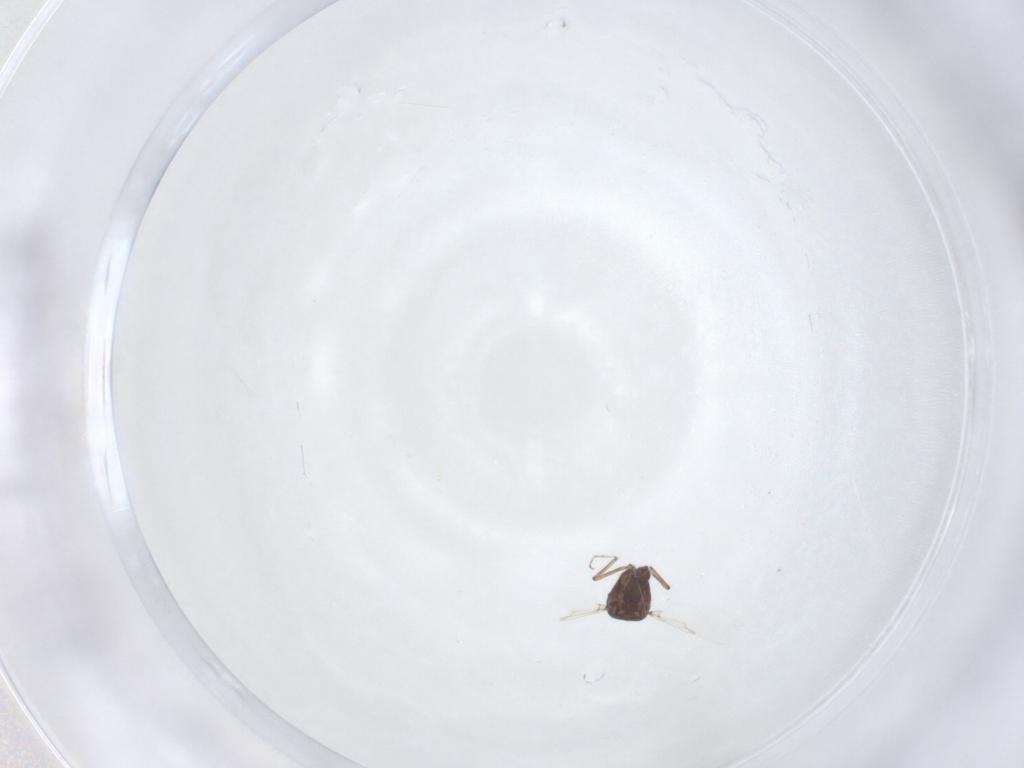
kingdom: Animalia
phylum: Arthropoda
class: Insecta
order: Diptera
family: Ceratopogonidae
